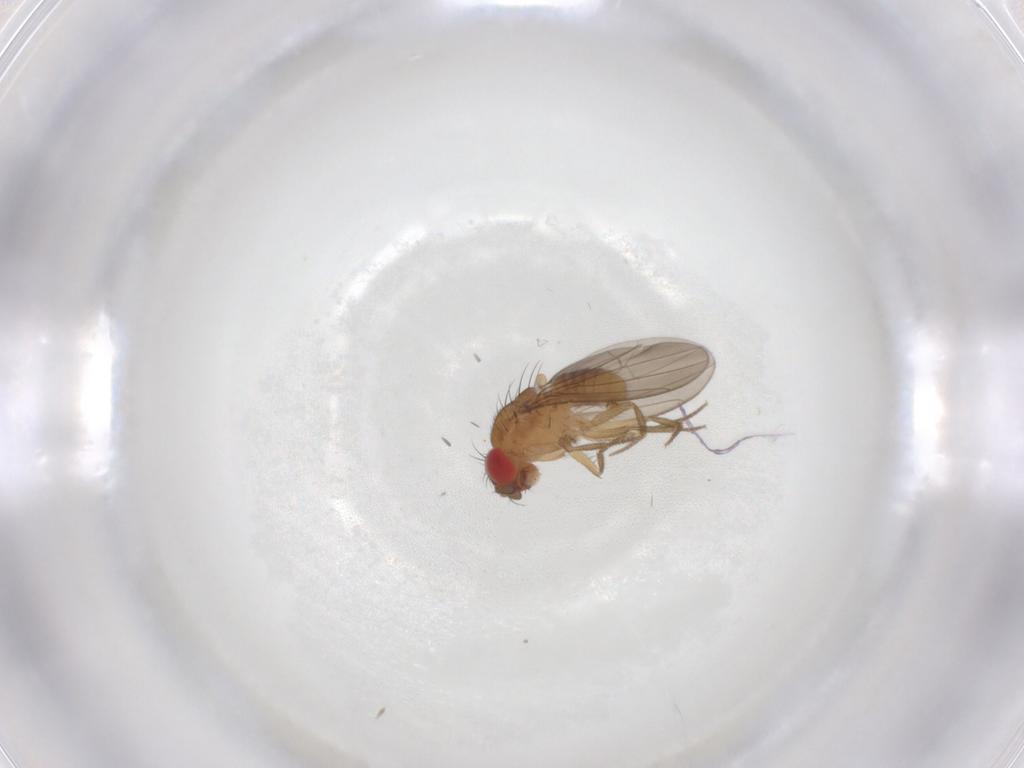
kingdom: Animalia
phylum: Arthropoda
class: Insecta
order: Diptera
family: Drosophilidae
